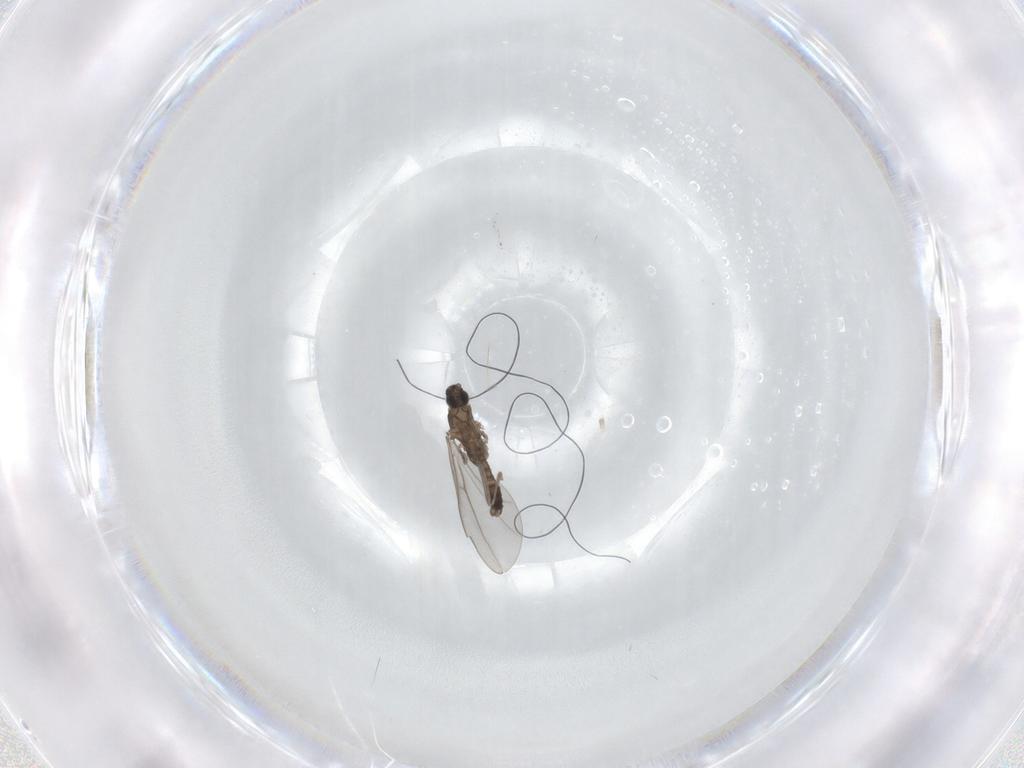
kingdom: Animalia
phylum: Arthropoda
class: Insecta
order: Diptera
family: Cecidomyiidae
